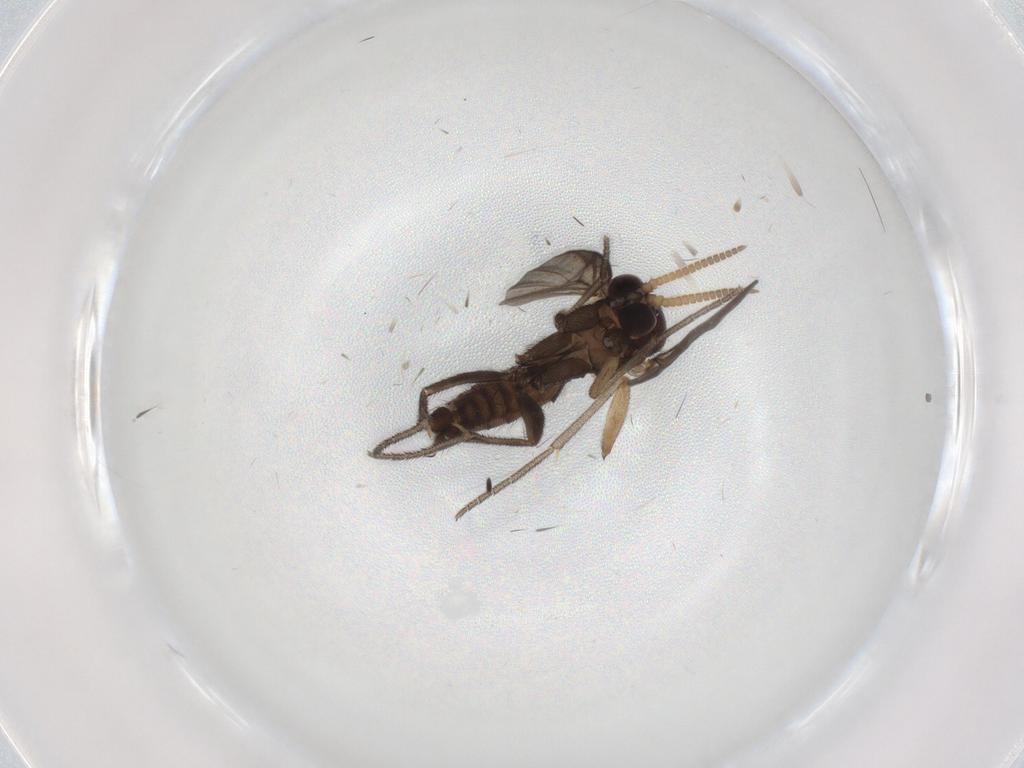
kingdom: Animalia
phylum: Arthropoda
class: Insecta
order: Diptera
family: Mycetophilidae
